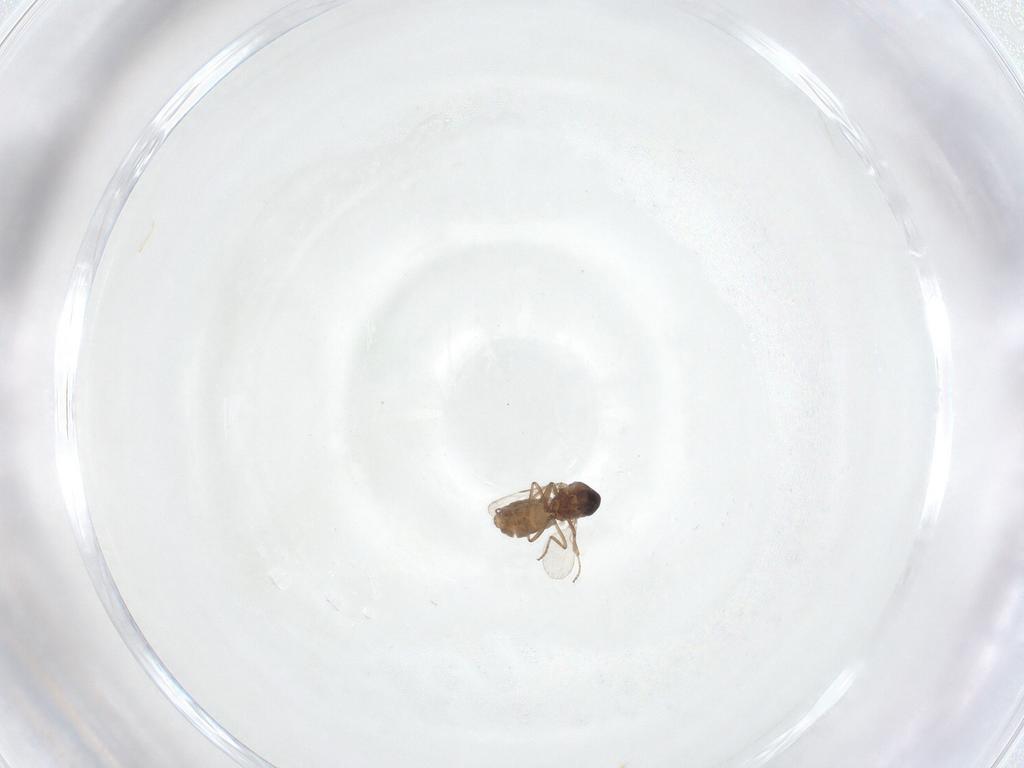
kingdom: Animalia
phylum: Arthropoda
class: Insecta
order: Diptera
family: Ceratopogonidae
